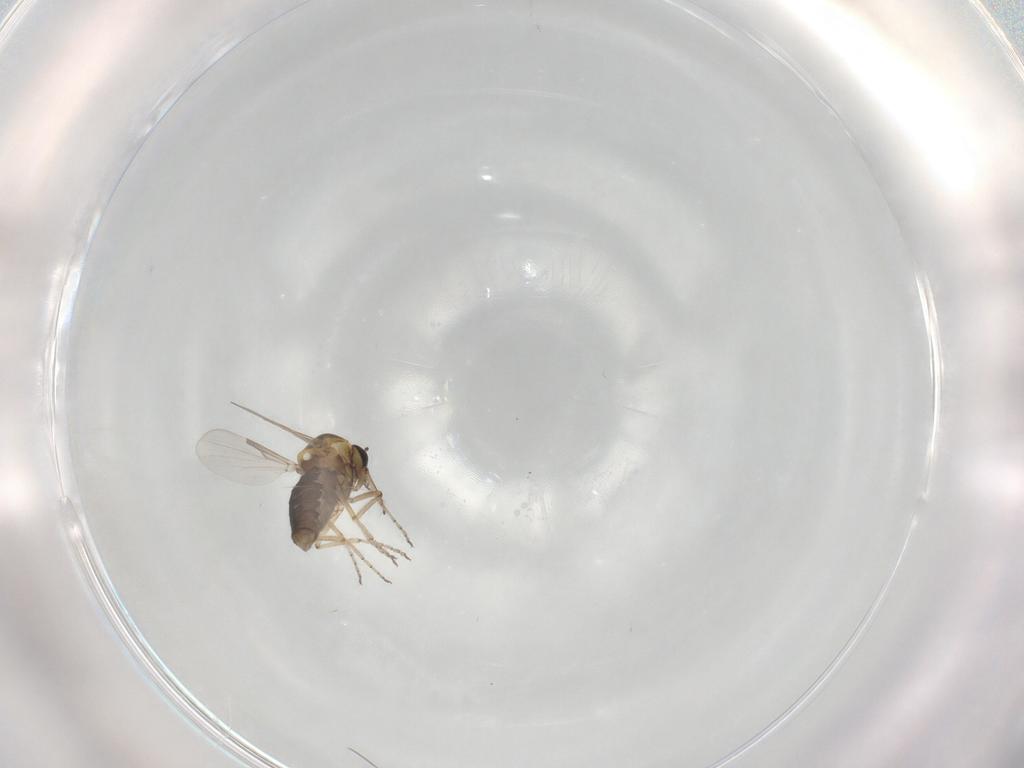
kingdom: Animalia
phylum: Arthropoda
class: Insecta
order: Diptera
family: Ceratopogonidae
